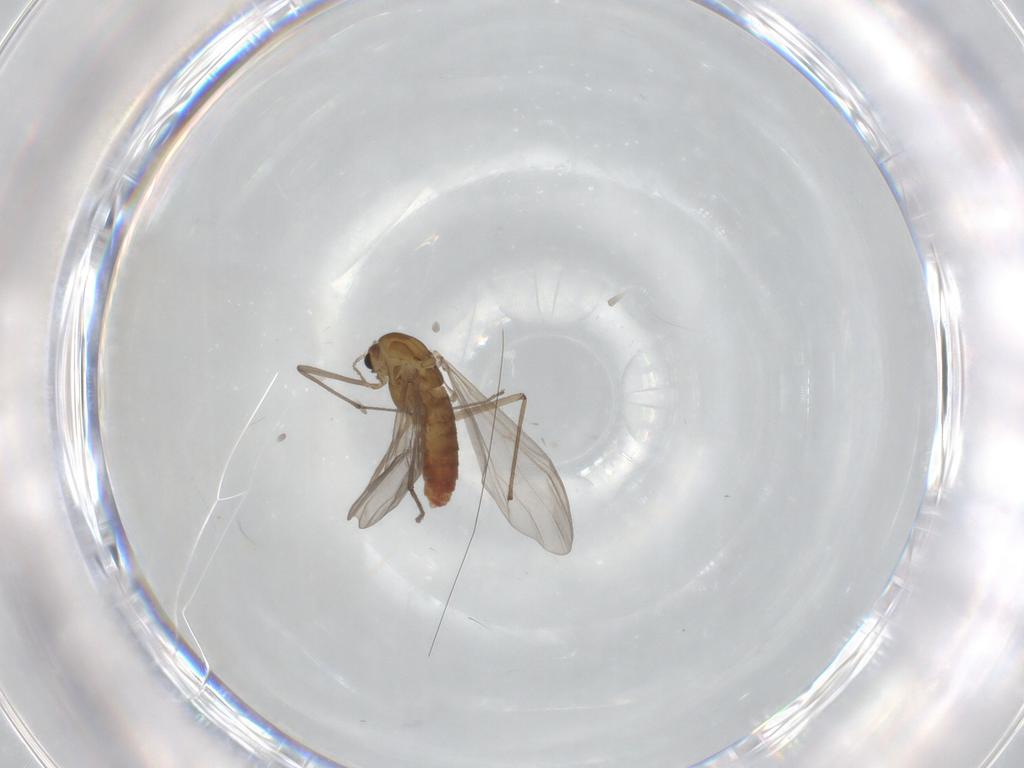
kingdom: Animalia
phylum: Arthropoda
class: Insecta
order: Diptera
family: Chironomidae
